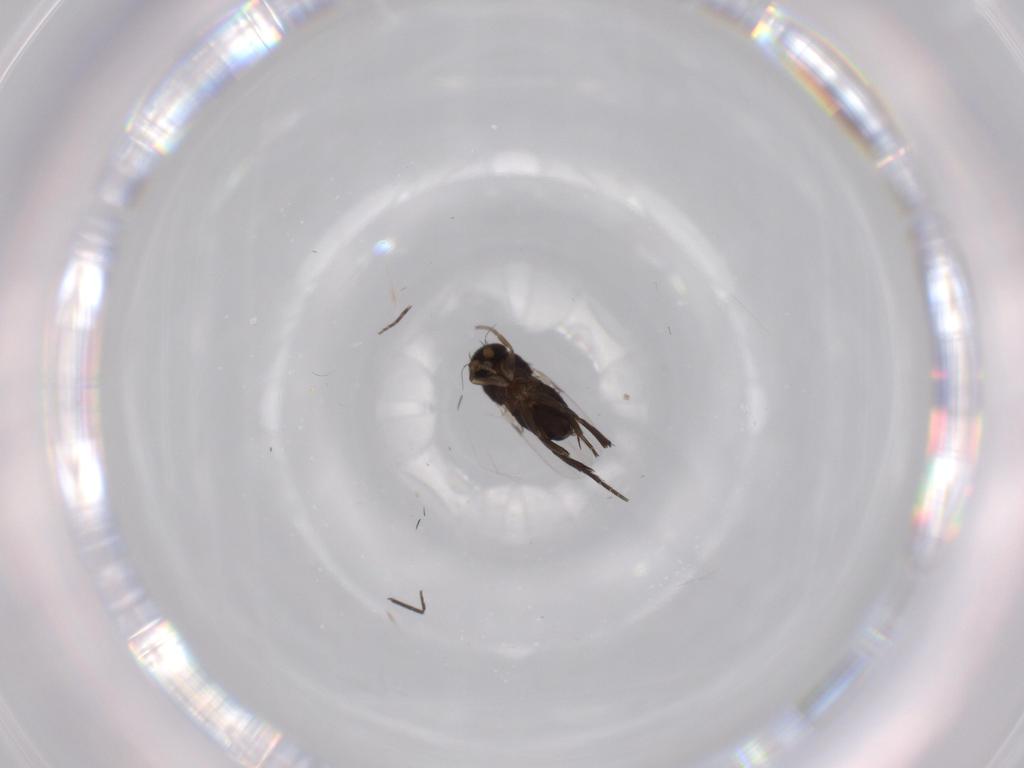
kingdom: Animalia
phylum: Arthropoda
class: Insecta
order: Diptera
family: Phoridae
